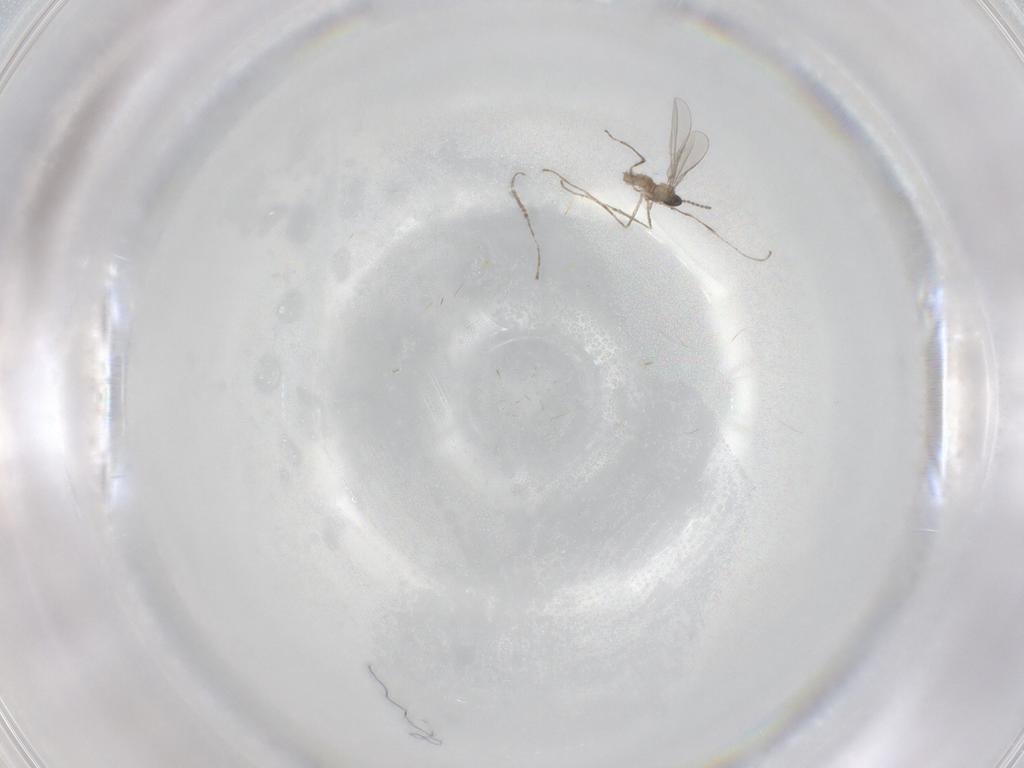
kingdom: Animalia
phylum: Arthropoda
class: Insecta
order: Diptera
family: Cecidomyiidae
